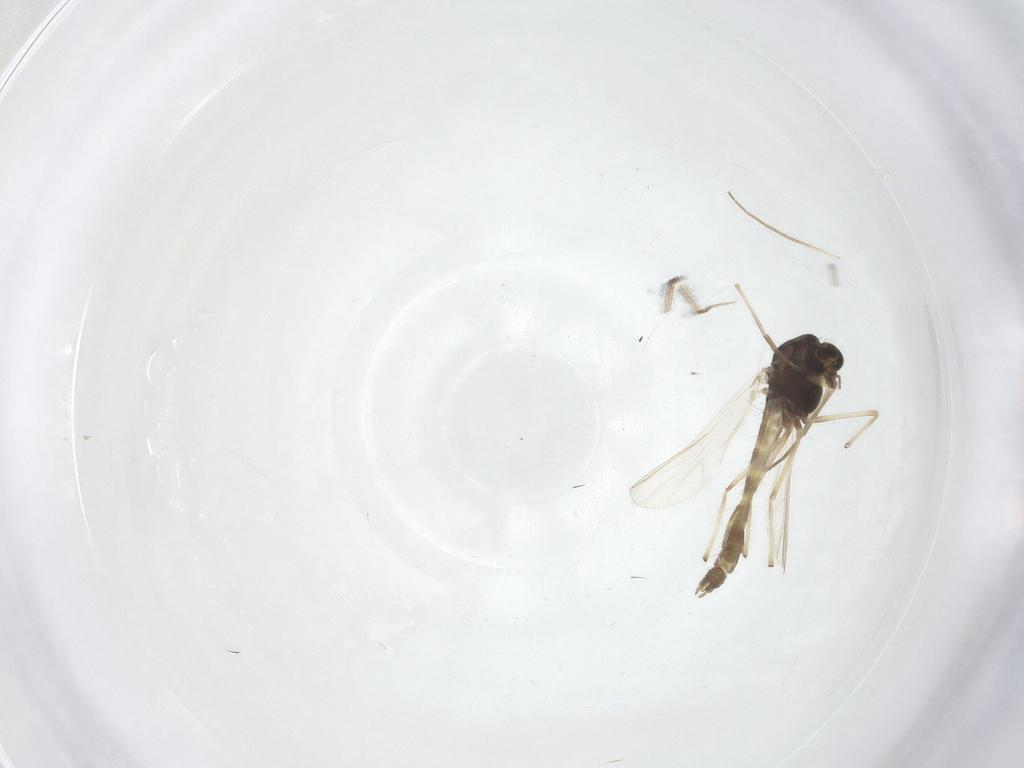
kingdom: Animalia
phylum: Arthropoda
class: Insecta
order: Diptera
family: Chironomidae
